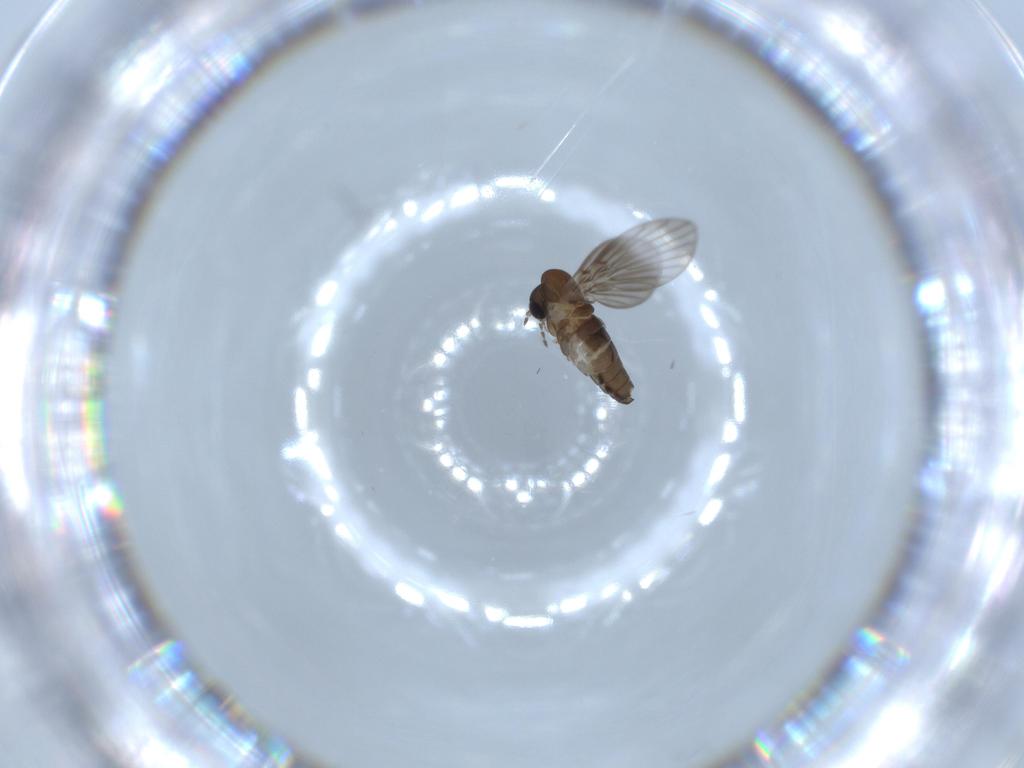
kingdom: Animalia
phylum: Arthropoda
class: Insecta
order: Diptera
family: Psychodidae
